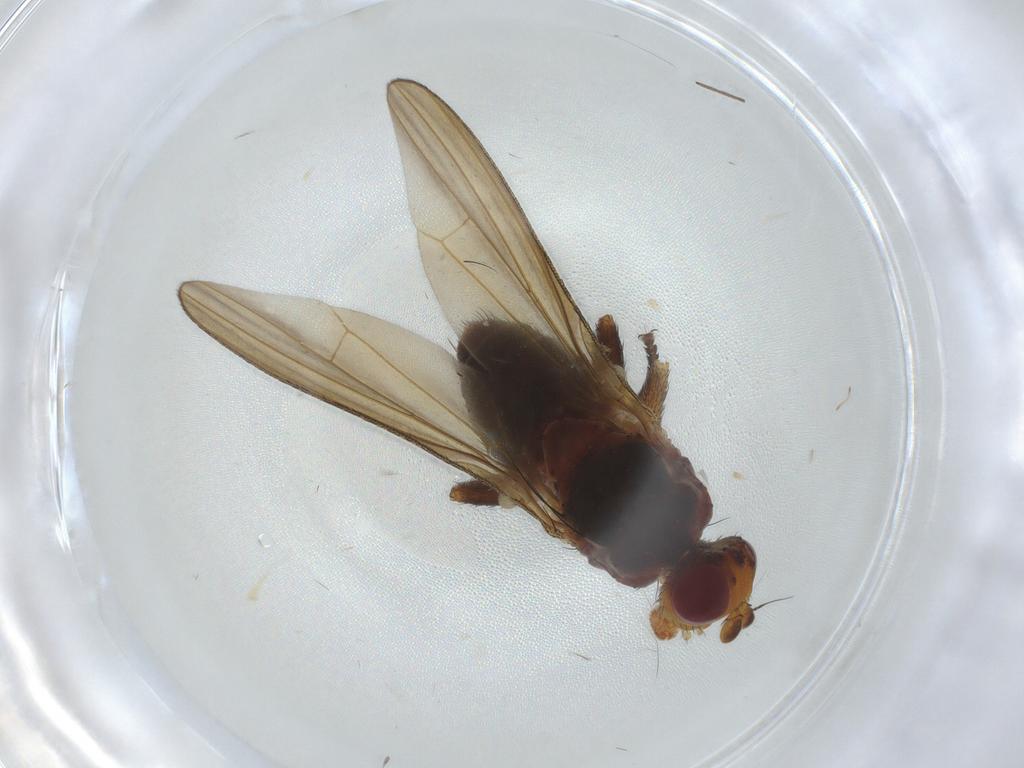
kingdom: Animalia
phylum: Arthropoda
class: Insecta
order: Diptera
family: Sciomyzidae
